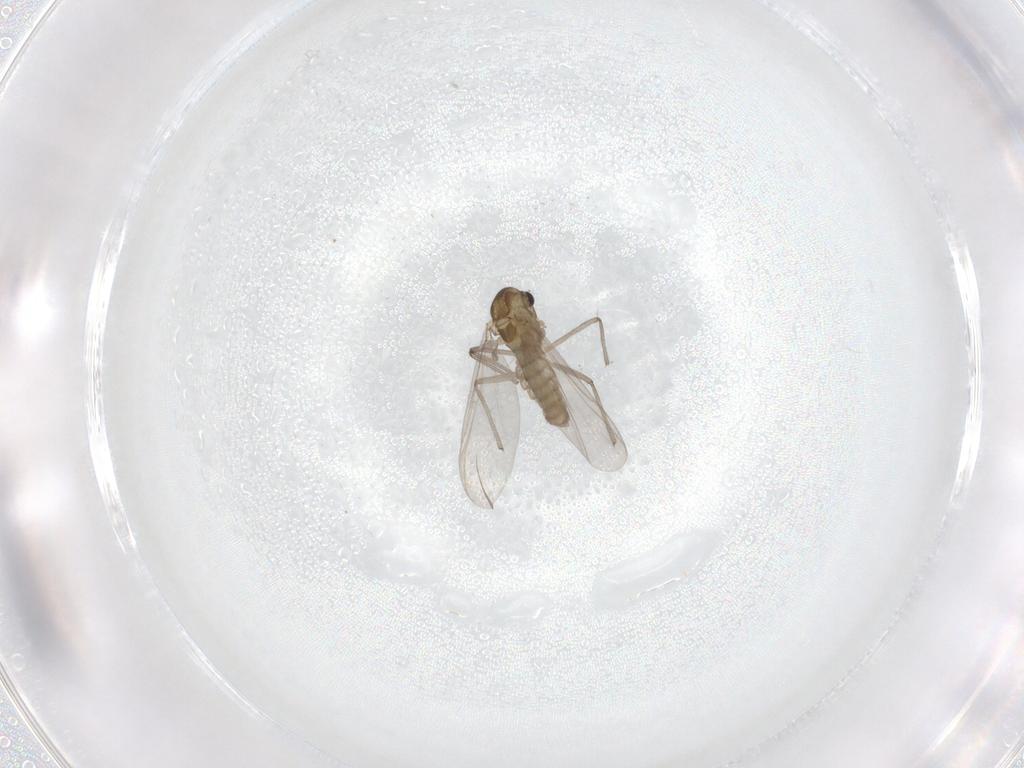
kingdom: Animalia
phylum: Arthropoda
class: Insecta
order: Diptera
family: Chironomidae
